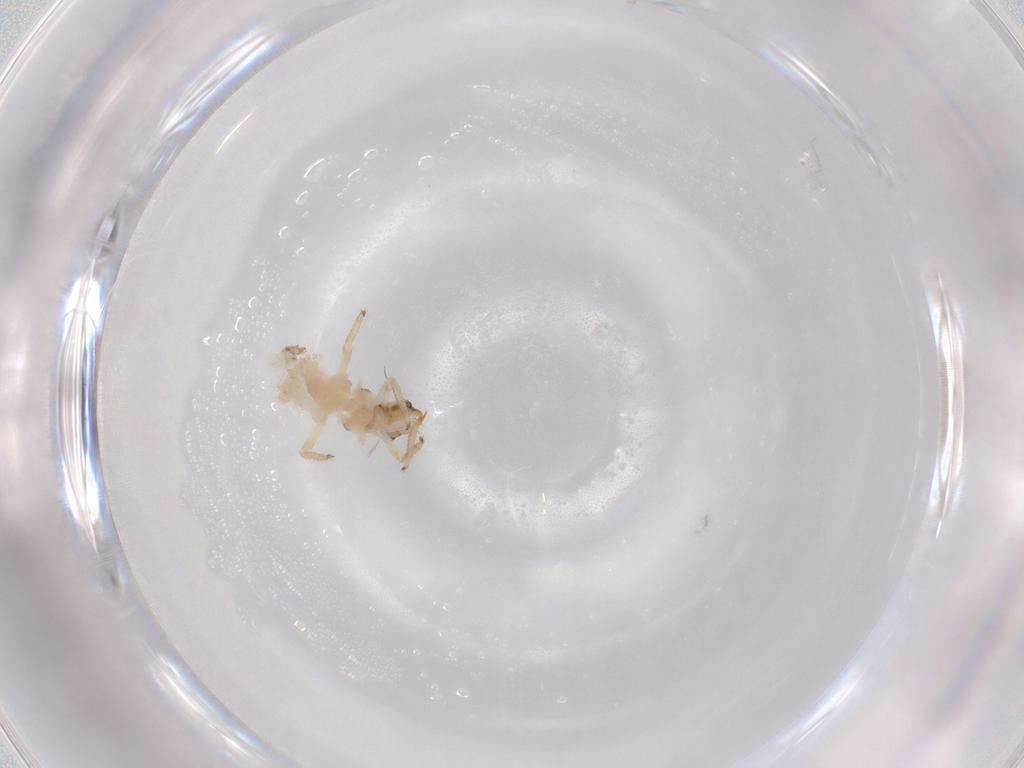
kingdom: Animalia
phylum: Arthropoda
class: Insecta
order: Neuroptera
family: Chrysopidae
